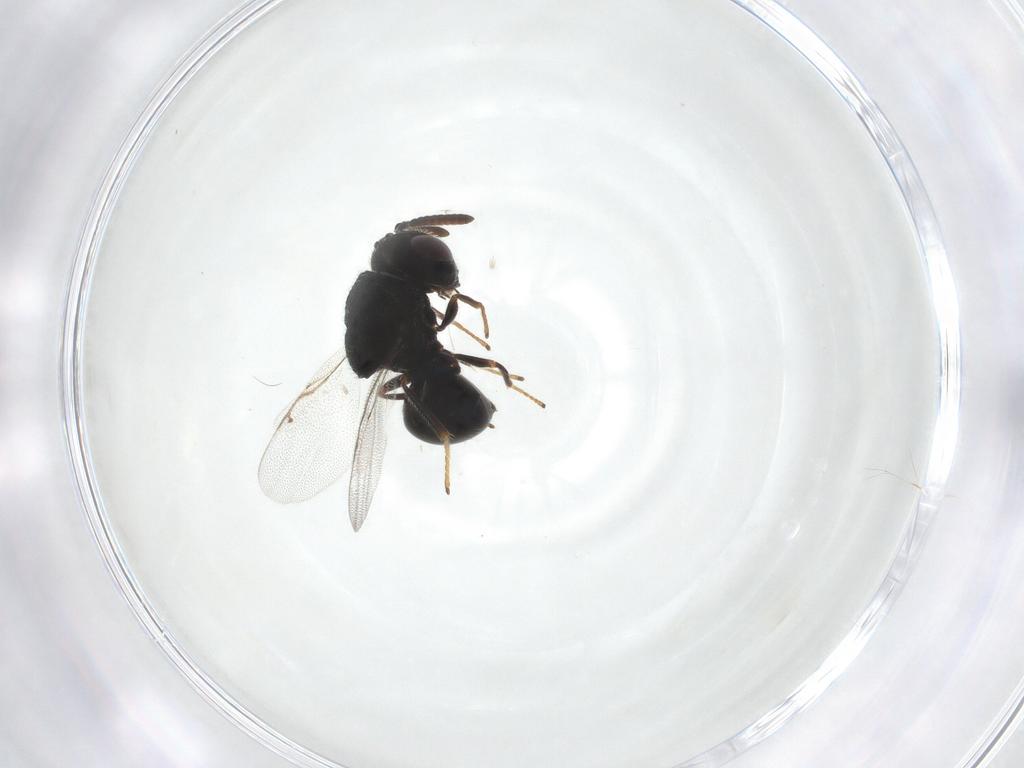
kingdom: Animalia
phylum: Arthropoda
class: Insecta
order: Hymenoptera
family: Perilampidae
